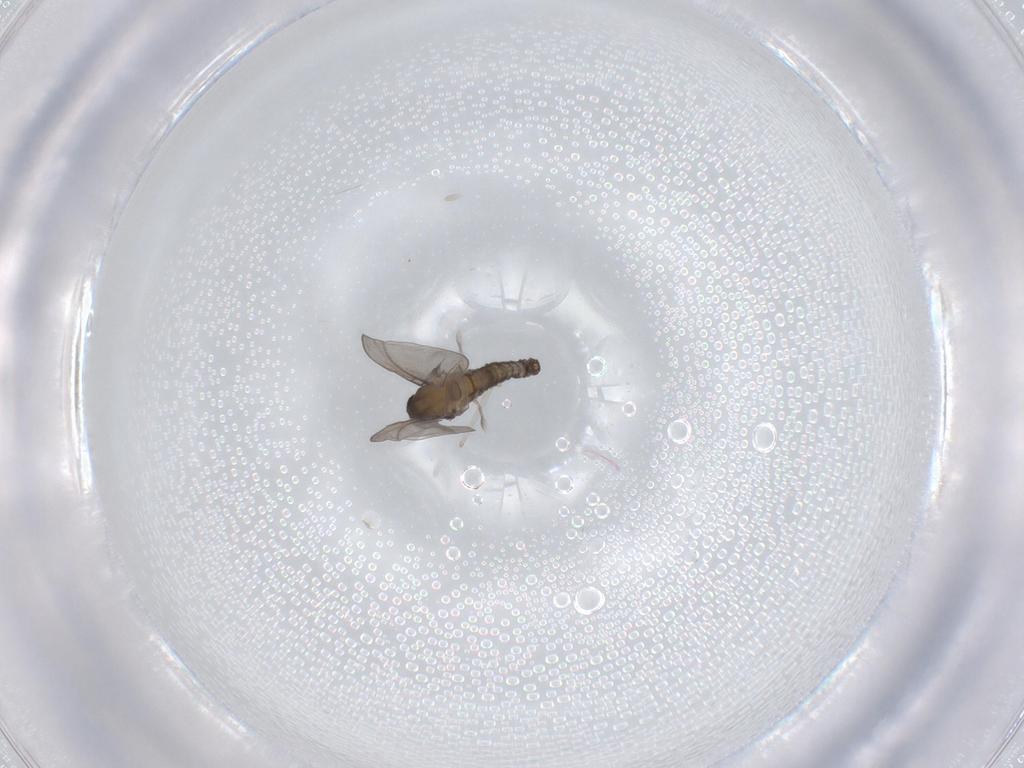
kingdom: Animalia
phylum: Arthropoda
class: Insecta
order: Diptera
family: Cecidomyiidae
